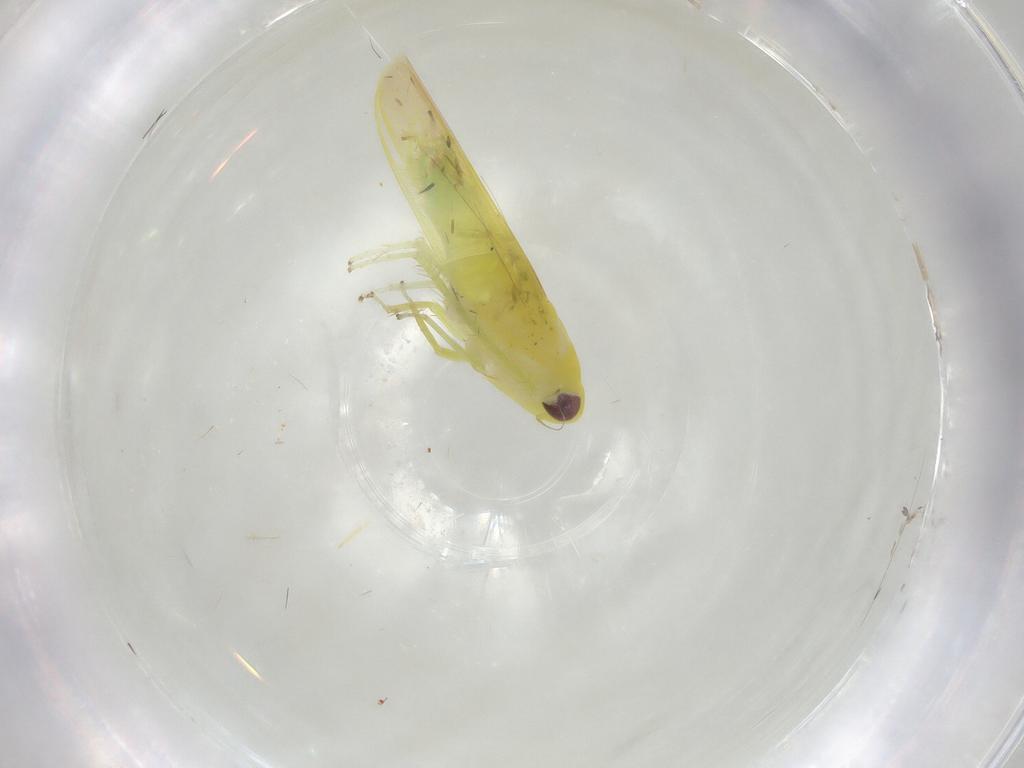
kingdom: Animalia
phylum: Arthropoda
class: Insecta
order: Hemiptera
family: Cicadellidae
